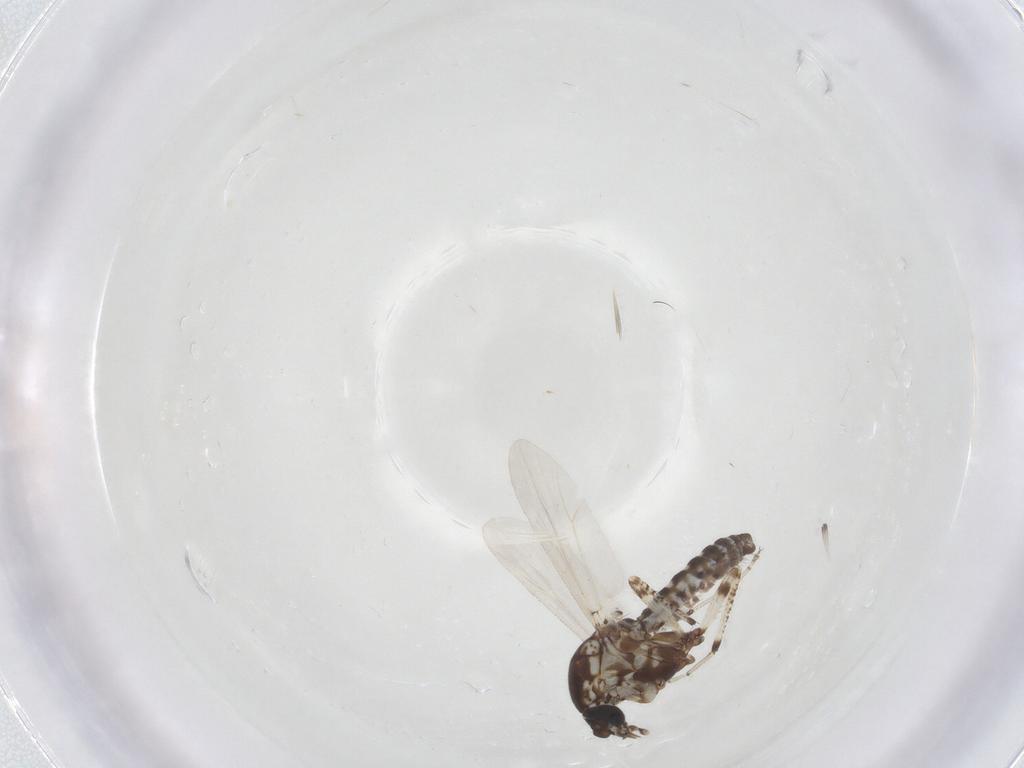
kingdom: Animalia
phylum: Arthropoda
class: Insecta
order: Diptera
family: Ceratopogonidae
